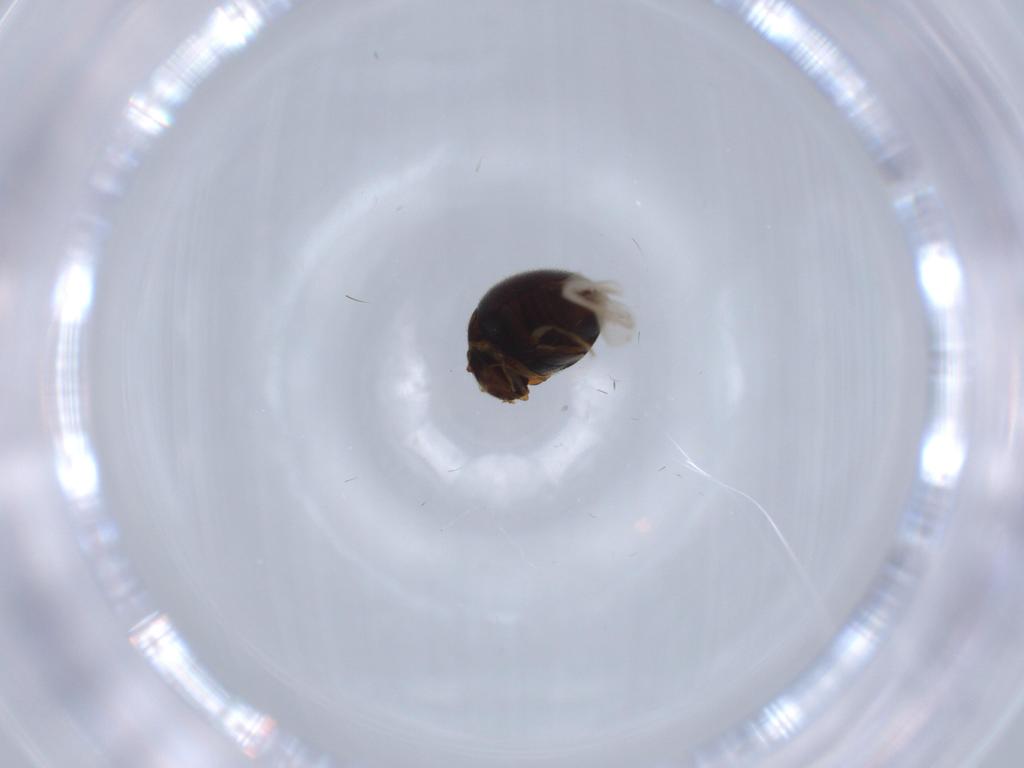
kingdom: Animalia
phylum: Arthropoda
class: Insecta
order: Coleoptera
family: Clambidae
